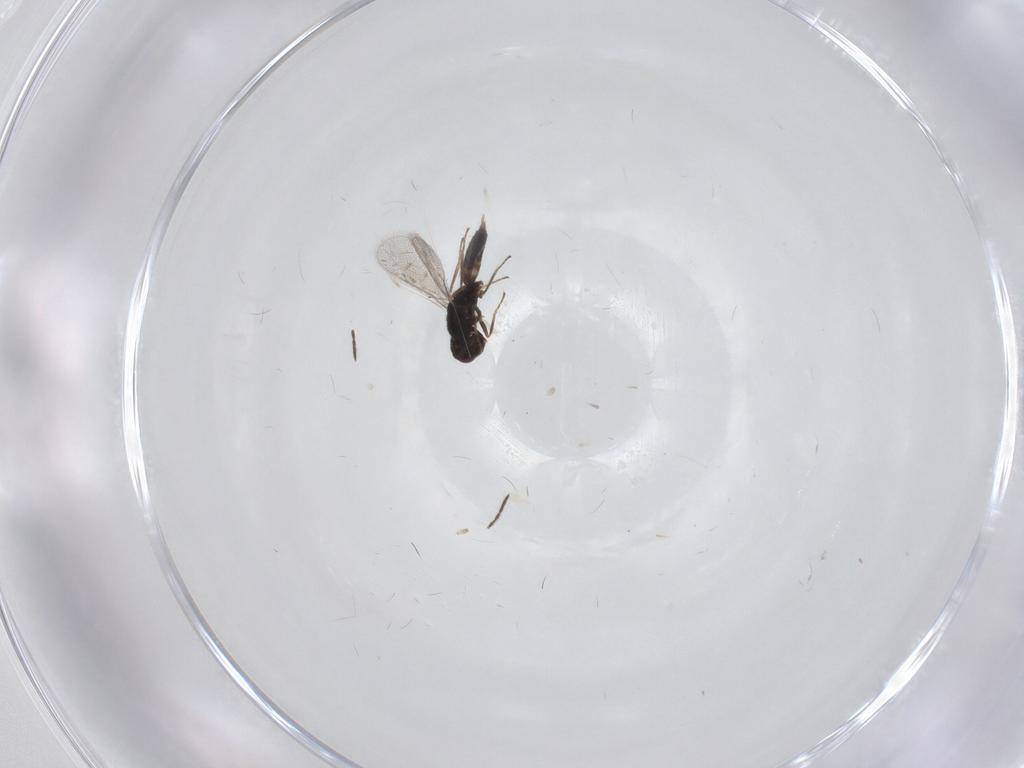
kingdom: Animalia
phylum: Arthropoda
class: Insecta
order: Hymenoptera
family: Eulophidae
